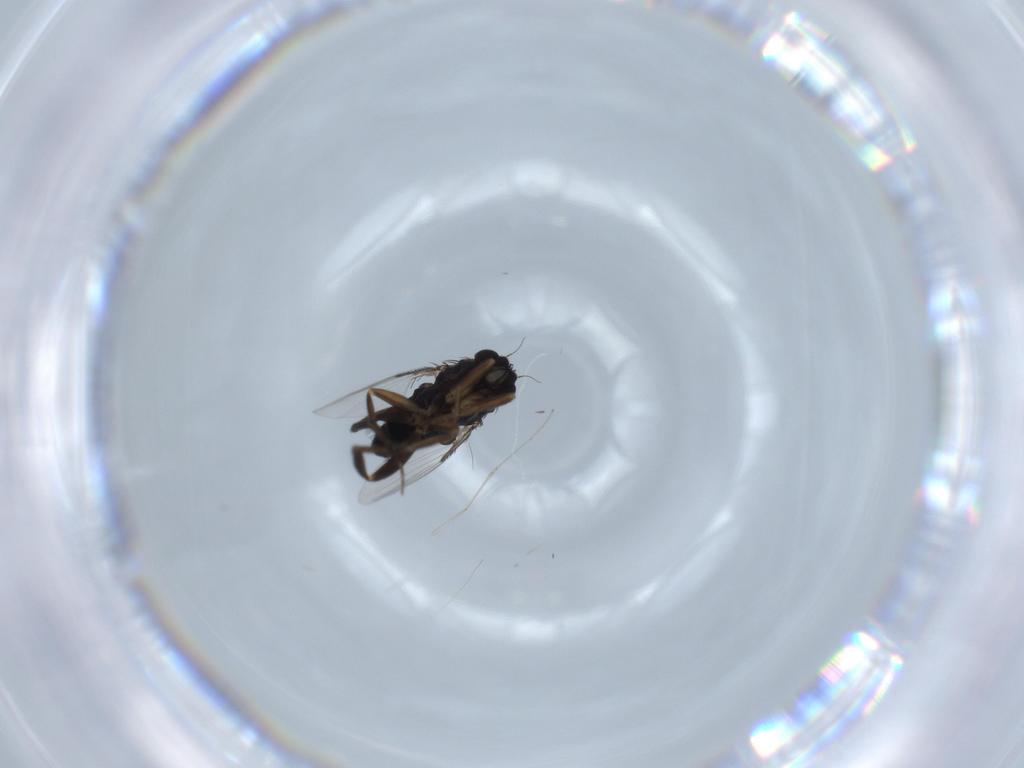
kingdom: Animalia
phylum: Arthropoda
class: Insecta
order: Diptera
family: Phoridae
